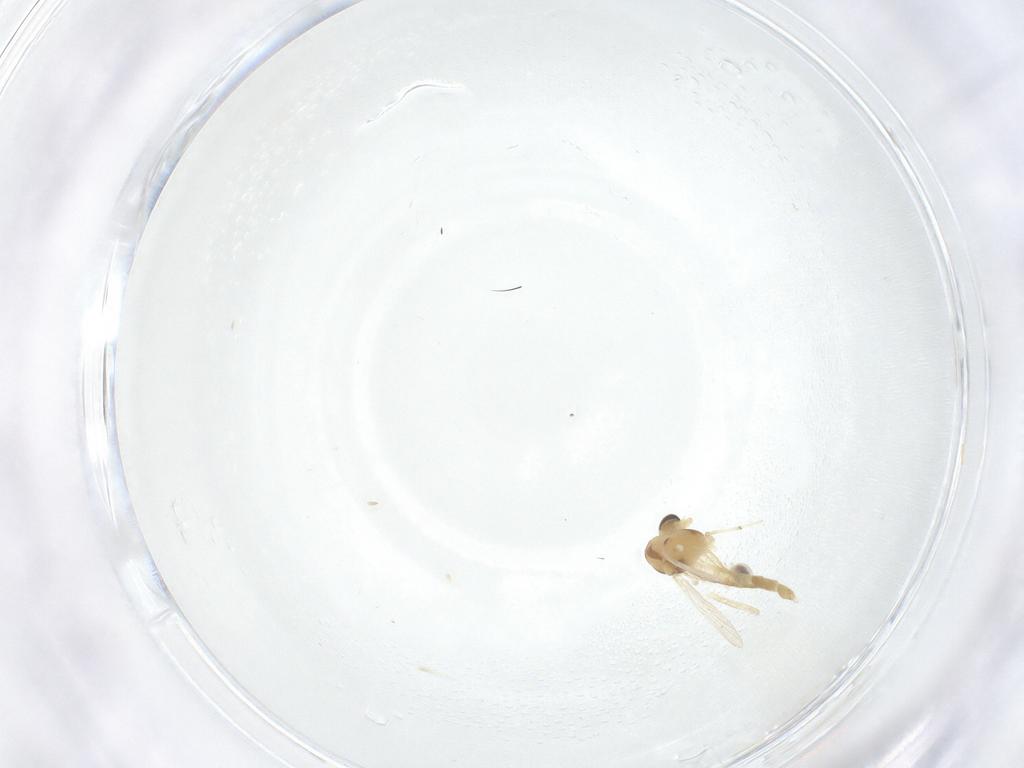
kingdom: Animalia
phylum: Arthropoda
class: Insecta
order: Diptera
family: Chironomidae
